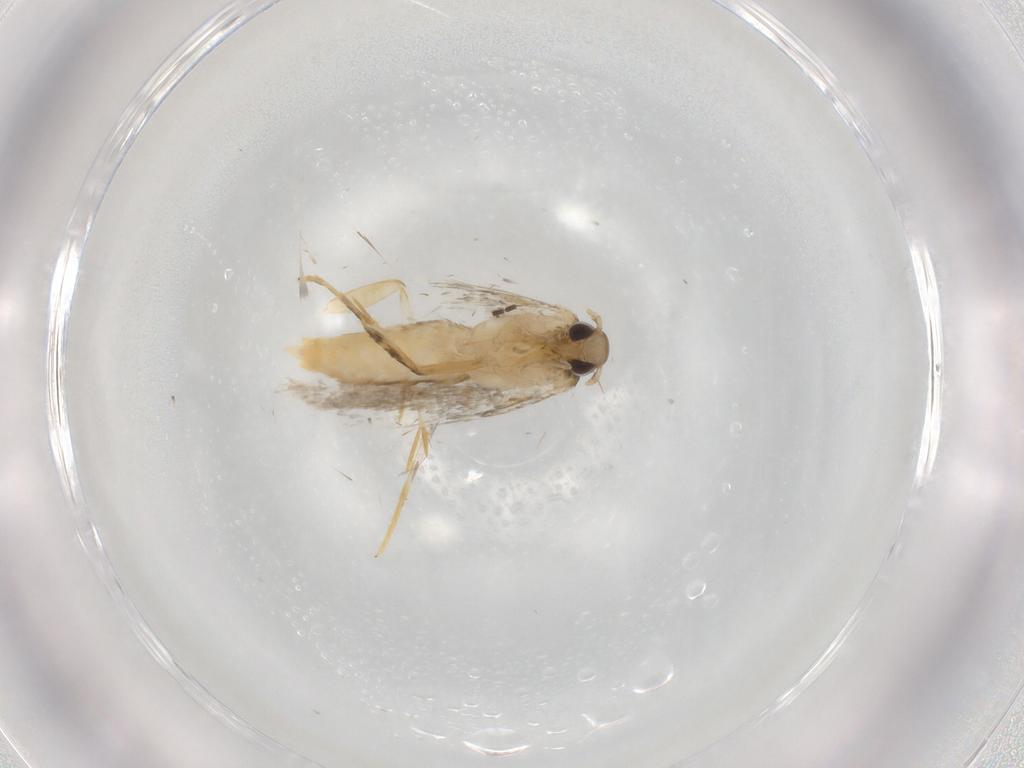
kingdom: Animalia
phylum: Arthropoda
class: Insecta
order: Lepidoptera
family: Autostichidae
